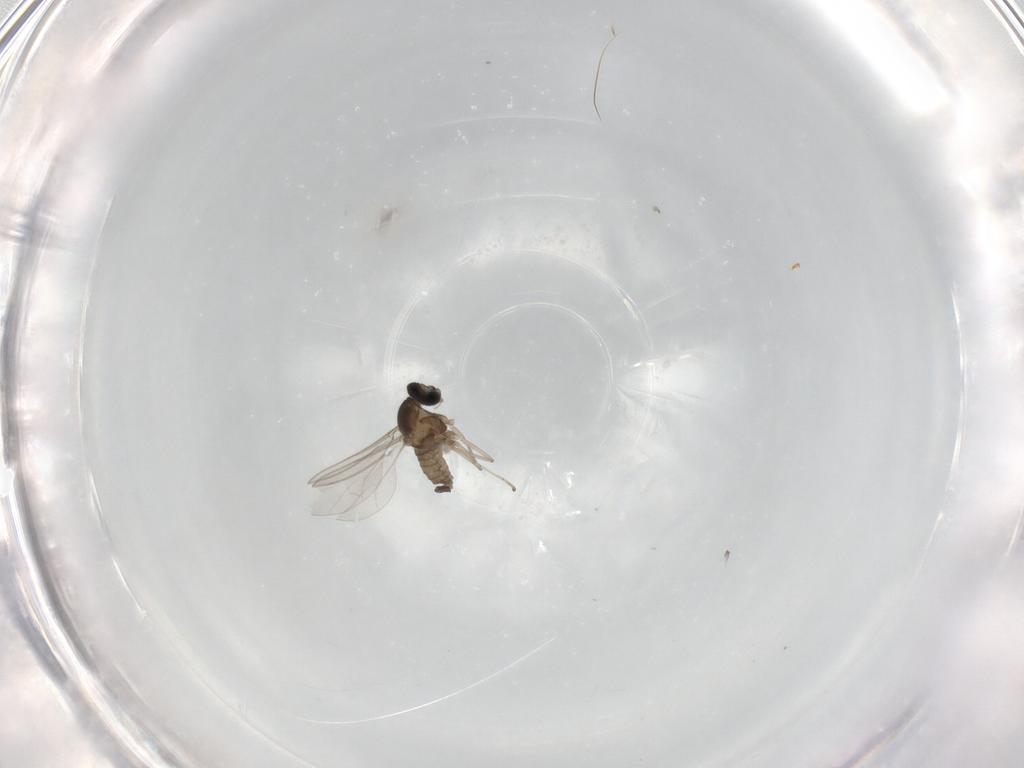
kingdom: Animalia
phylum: Arthropoda
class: Insecta
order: Diptera
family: Cecidomyiidae
